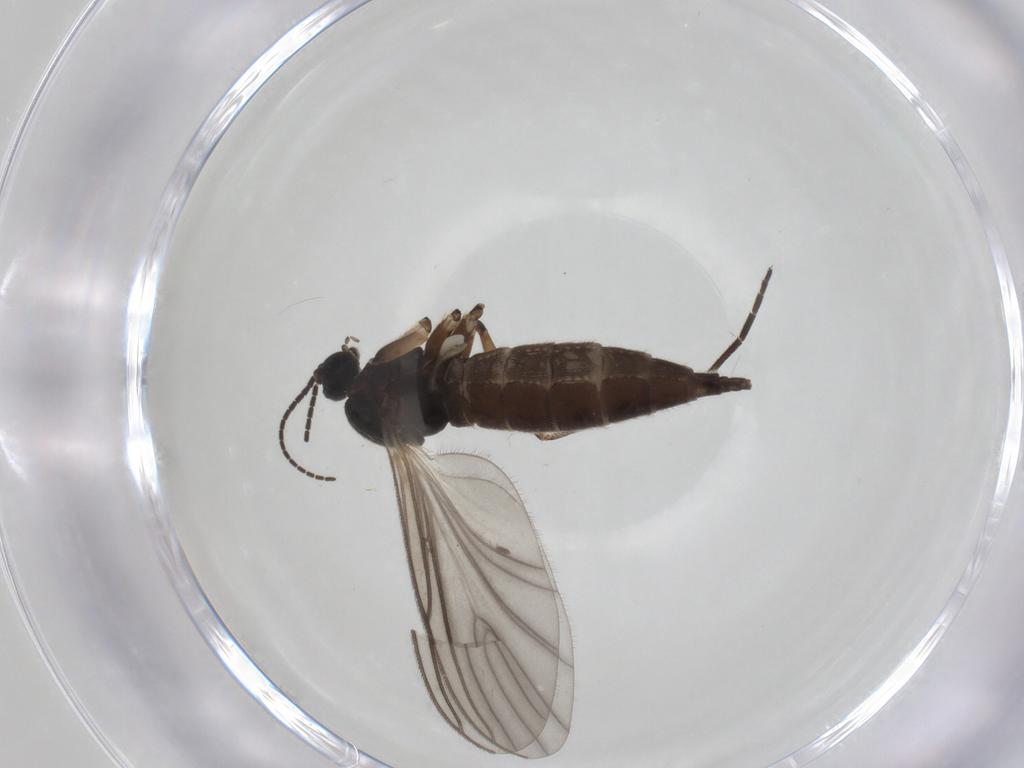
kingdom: Animalia
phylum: Arthropoda
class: Insecta
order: Diptera
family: Sciaridae
